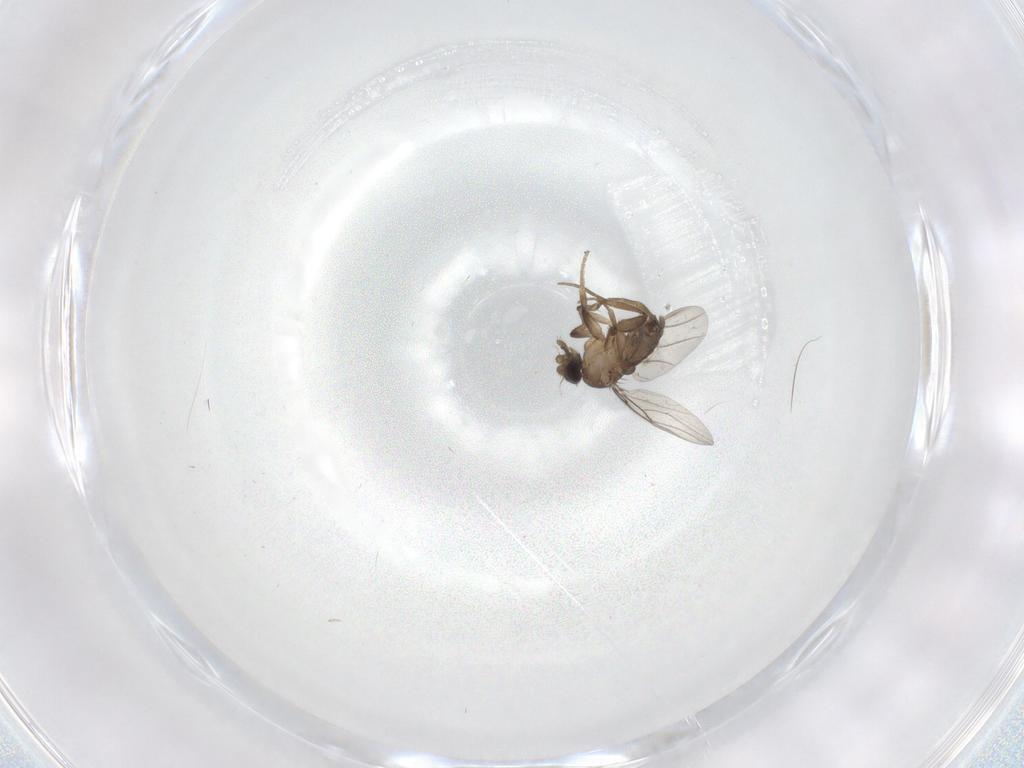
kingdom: Animalia
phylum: Arthropoda
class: Insecta
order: Diptera
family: Phoridae
